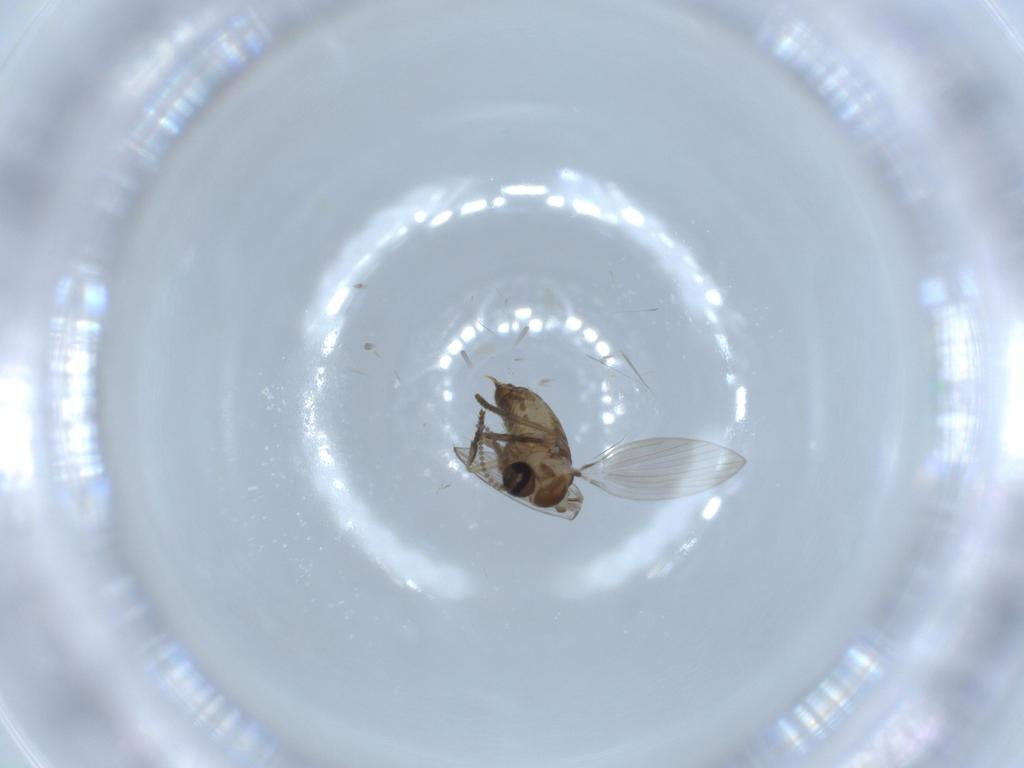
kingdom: Animalia
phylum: Arthropoda
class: Insecta
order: Diptera
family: Psychodidae
